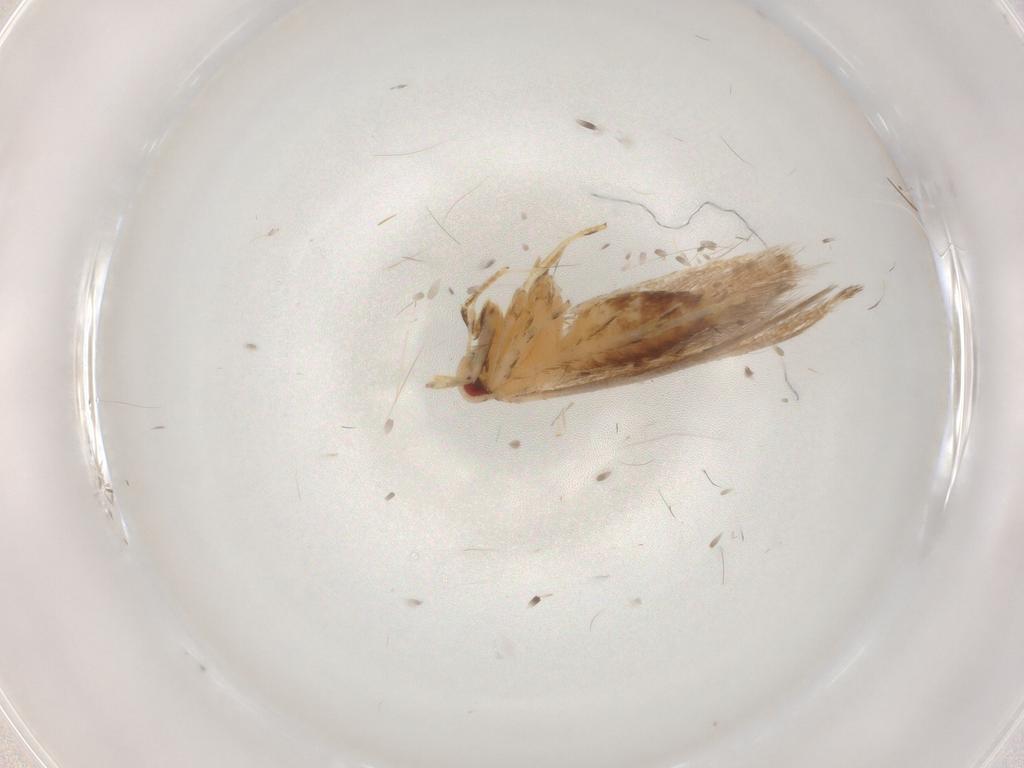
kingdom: Animalia
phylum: Arthropoda
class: Insecta
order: Lepidoptera
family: Cosmopterigidae
